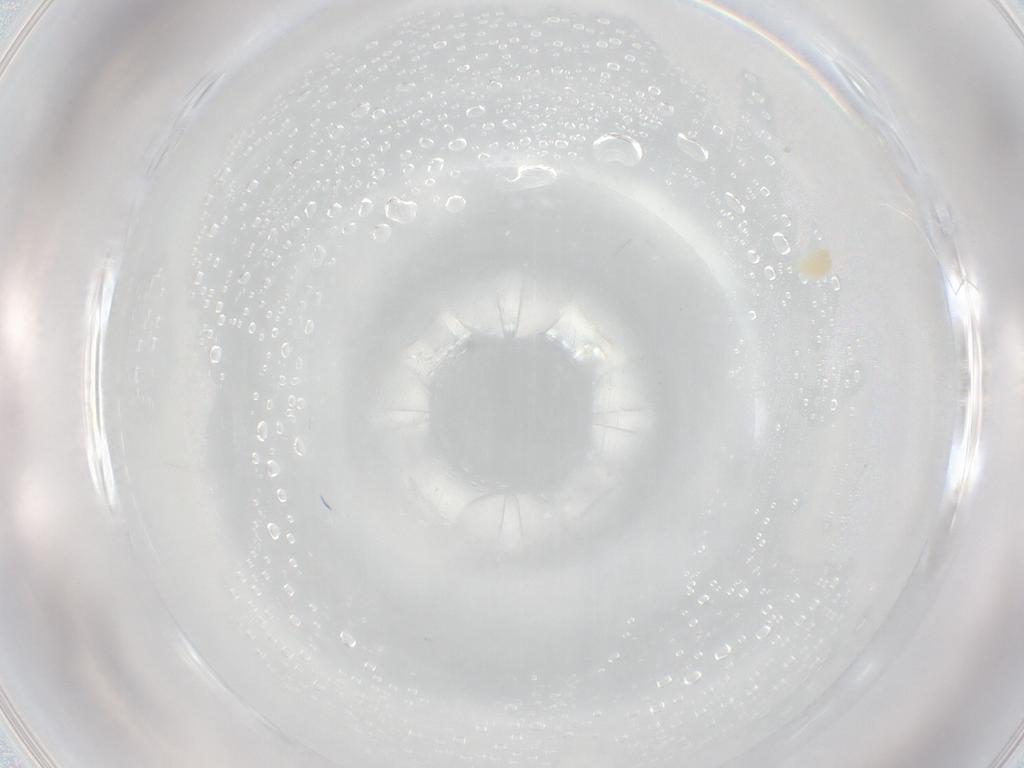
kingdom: Animalia
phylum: Arthropoda
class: Arachnida
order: Trombidiformes
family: Eupodidae
